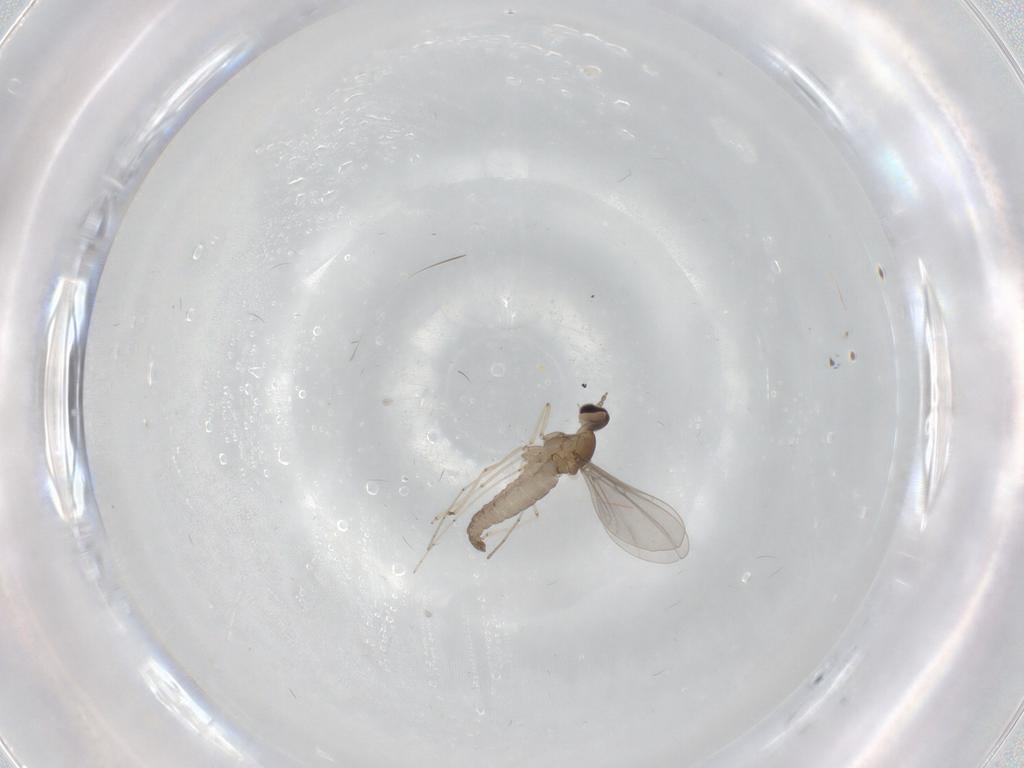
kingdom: Animalia
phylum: Arthropoda
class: Insecta
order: Diptera
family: Cecidomyiidae
